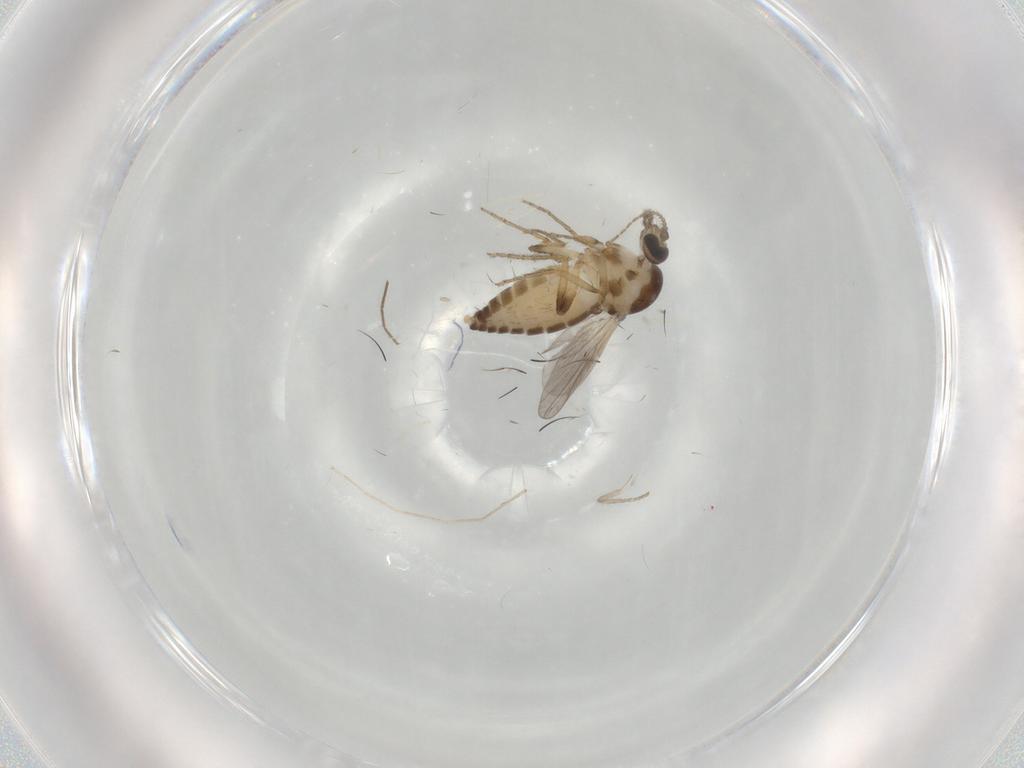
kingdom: Animalia
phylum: Arthropoda
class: Insecta
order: Diptera
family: Ceratopogonidae
